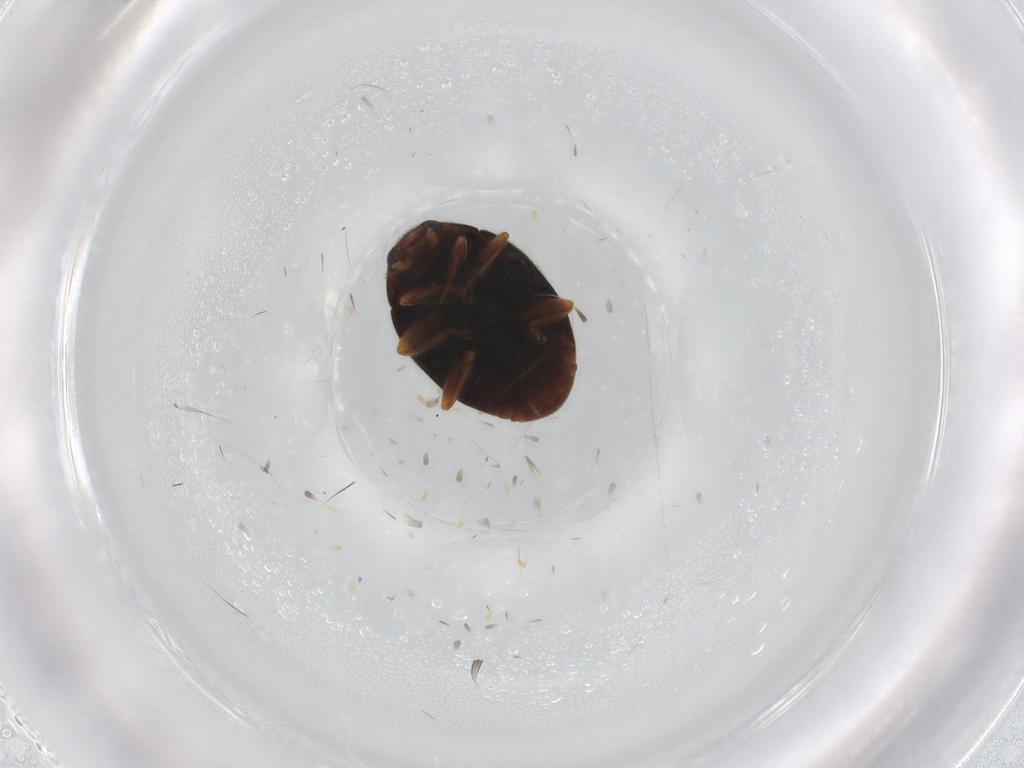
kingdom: Animalia
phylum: Arthropoda
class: Insecta
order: Coleoptera
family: Coccinellidae
